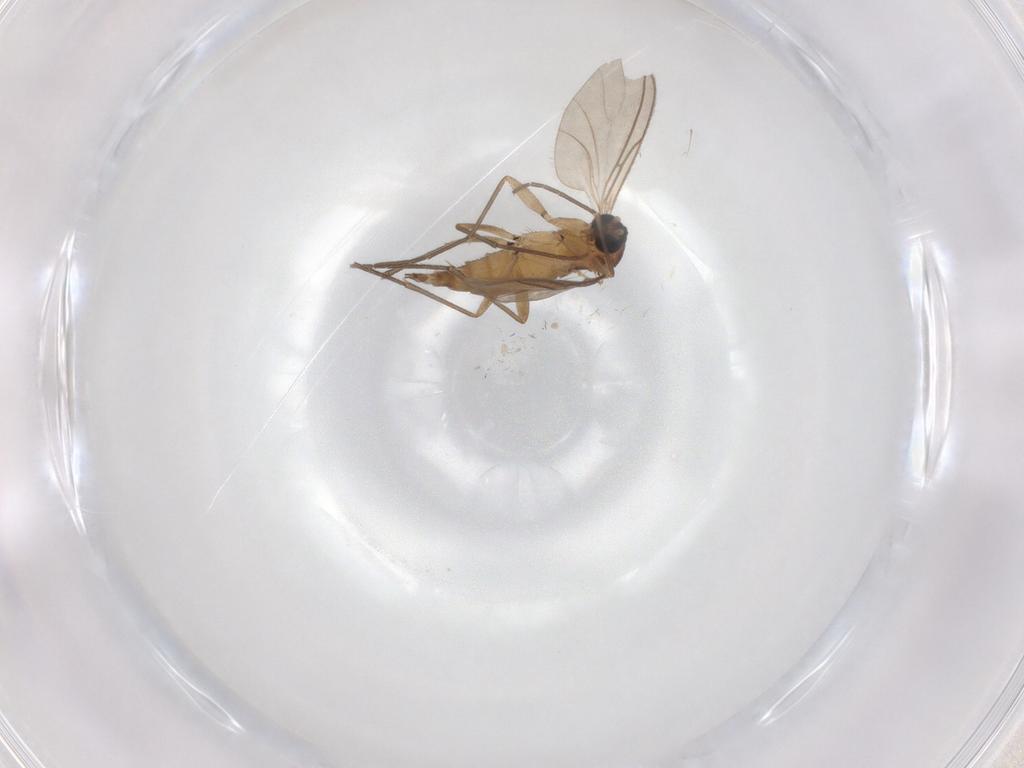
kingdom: Animalia
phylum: Arthropoda
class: Insecta
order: Diptera
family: Sciaridae
